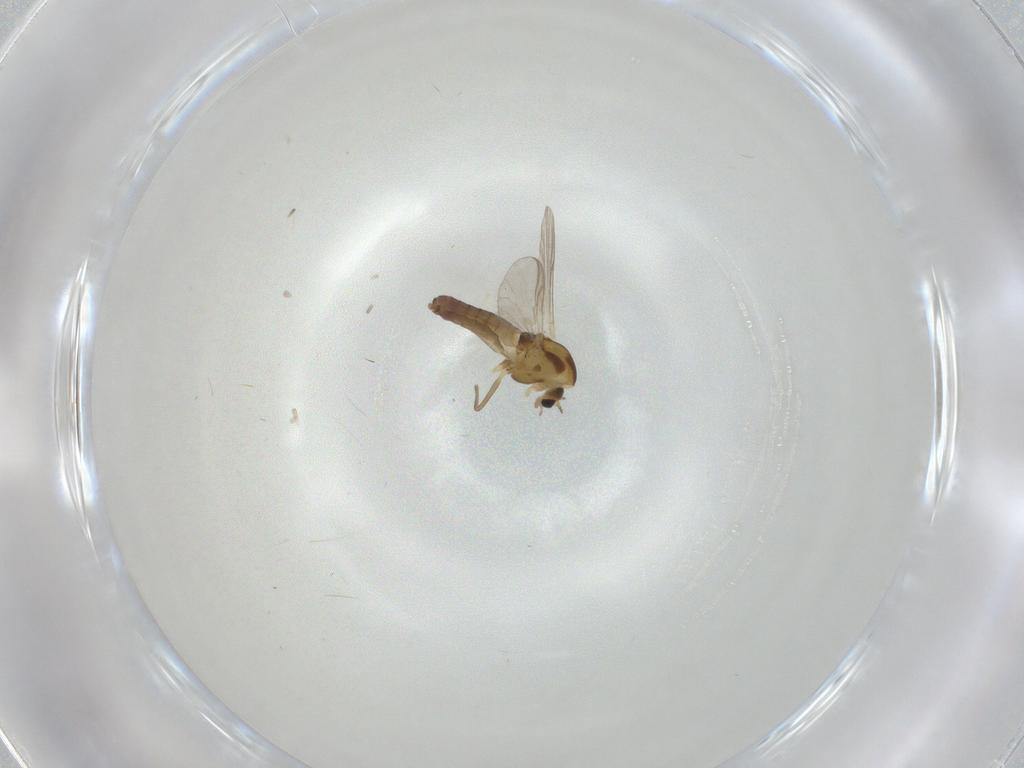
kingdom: Animalia
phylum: Arthropoda
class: Insecta
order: Diptera
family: Chironomidae
